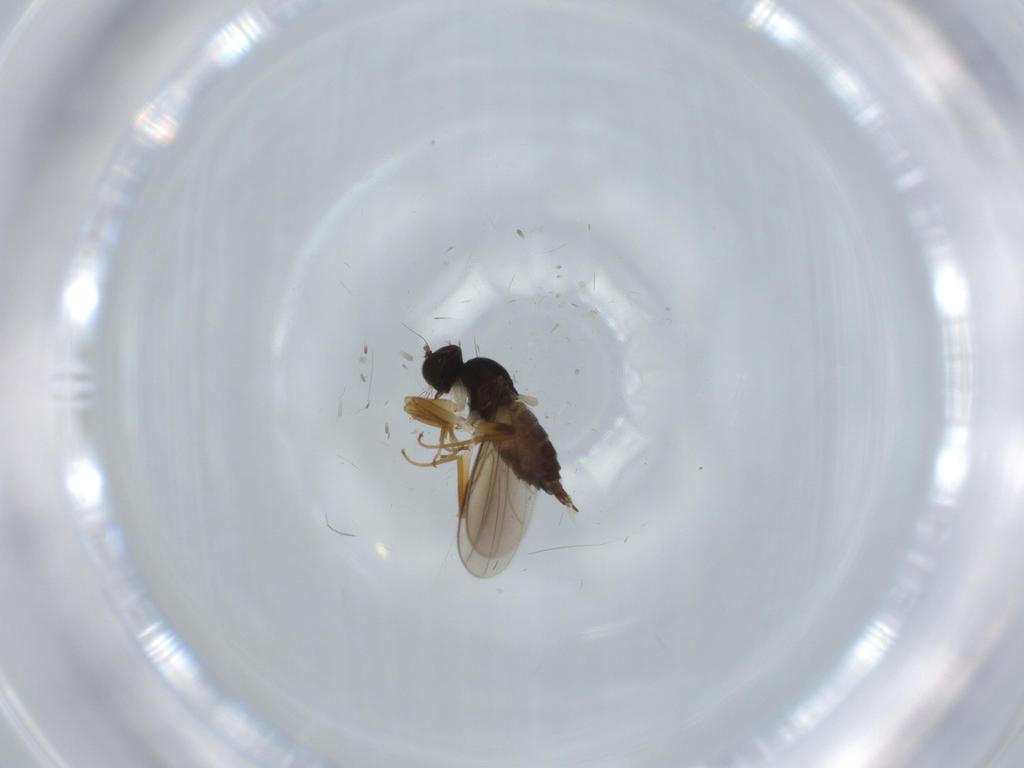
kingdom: Animalia
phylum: Arthropoda
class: Insecta
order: Diptera
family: Hybotidae
